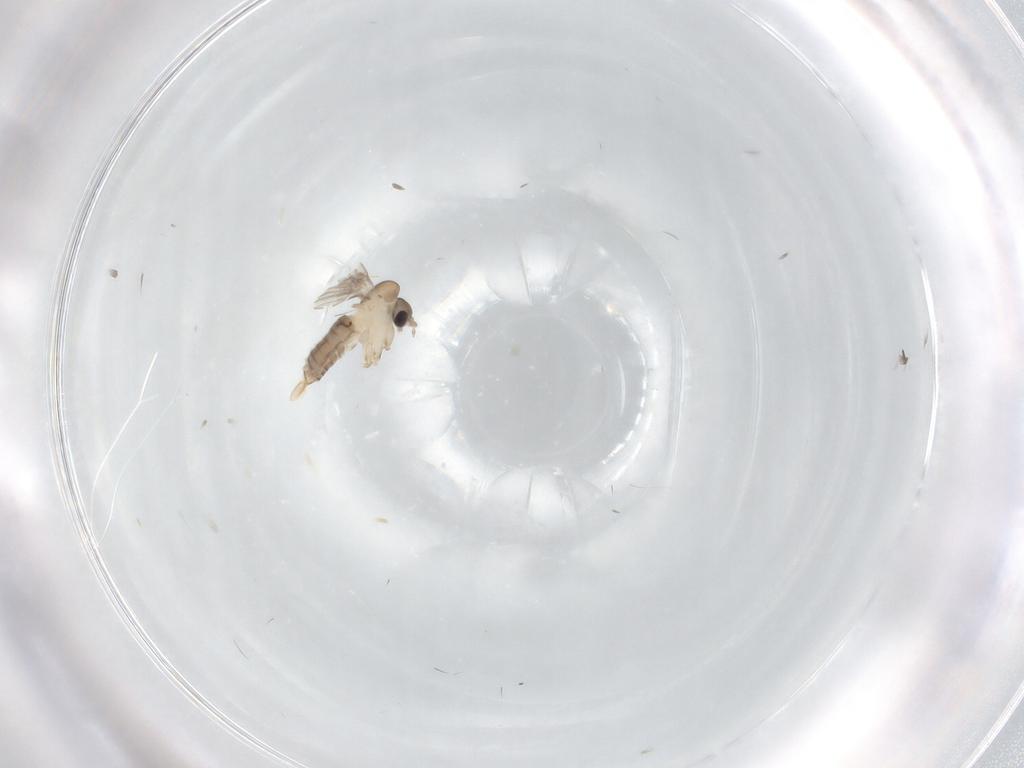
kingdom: Animalia
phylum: Arthropoda
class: Insecta
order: Diptera
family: Psychodidae
